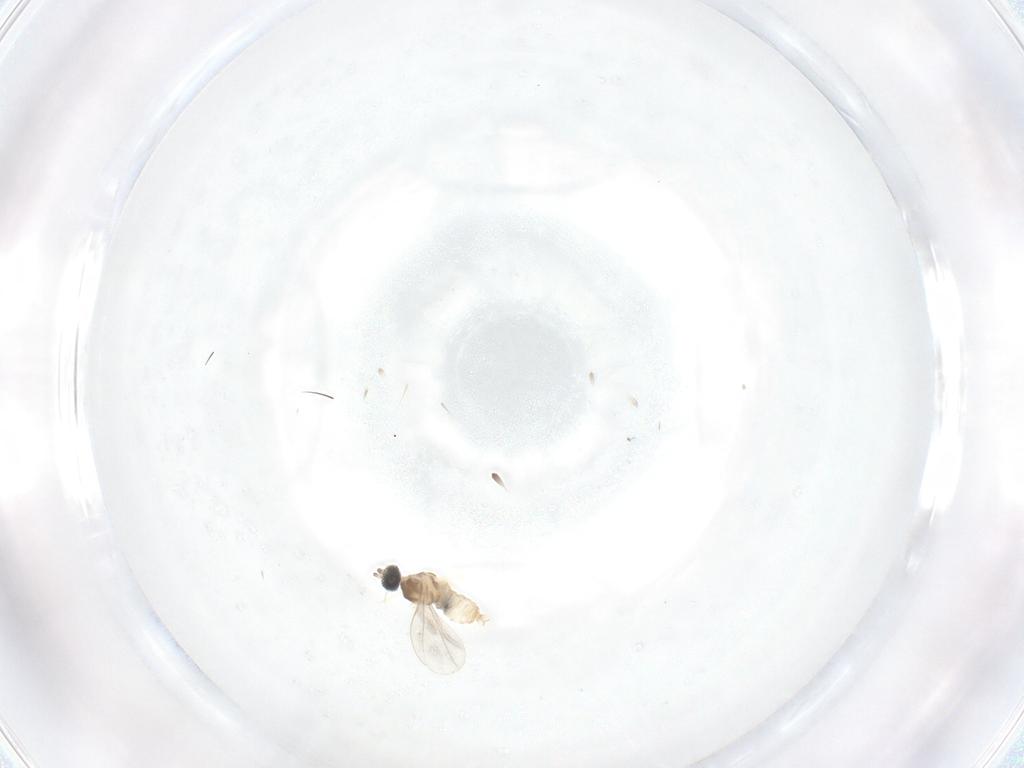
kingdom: Animalia
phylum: Arthropoda
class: Insecta
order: Diptera
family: Cecidomyiidae
